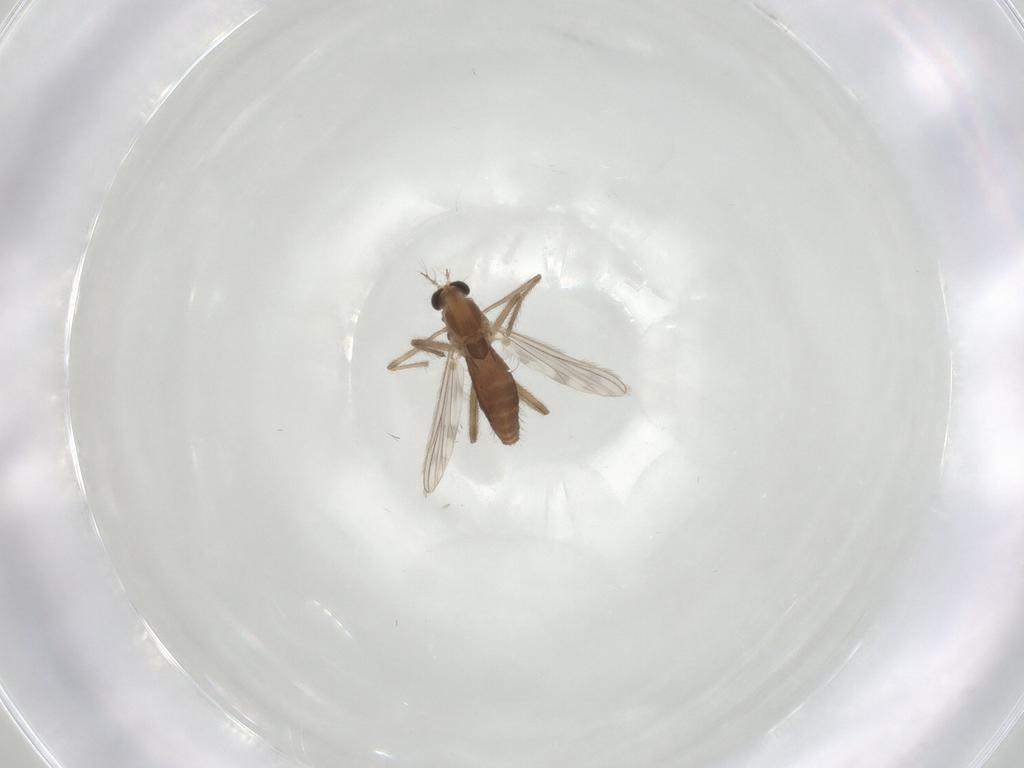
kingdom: Animalia
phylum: Arthropoda
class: Insecta
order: Diptera
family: Chironomidae
